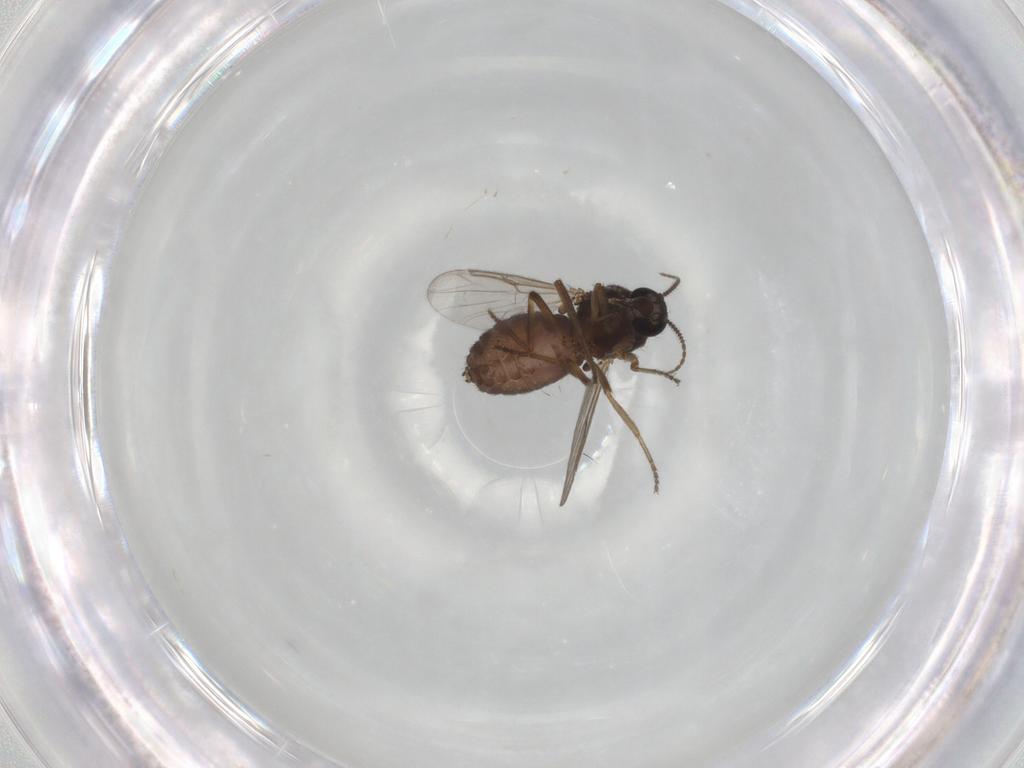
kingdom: Animalia
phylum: Arthropoda
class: Insecta
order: Diptera
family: Ceratopogonidae
